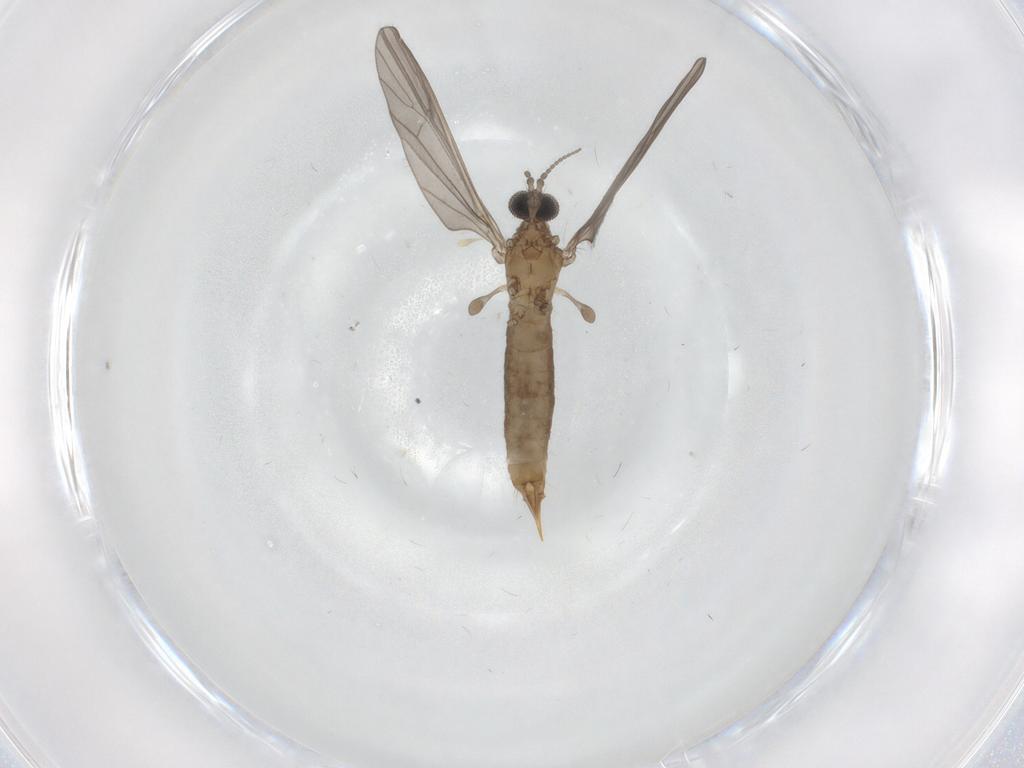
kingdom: Animalia
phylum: Arthropoda
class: Insecta
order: Diptera
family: Limoniidae
